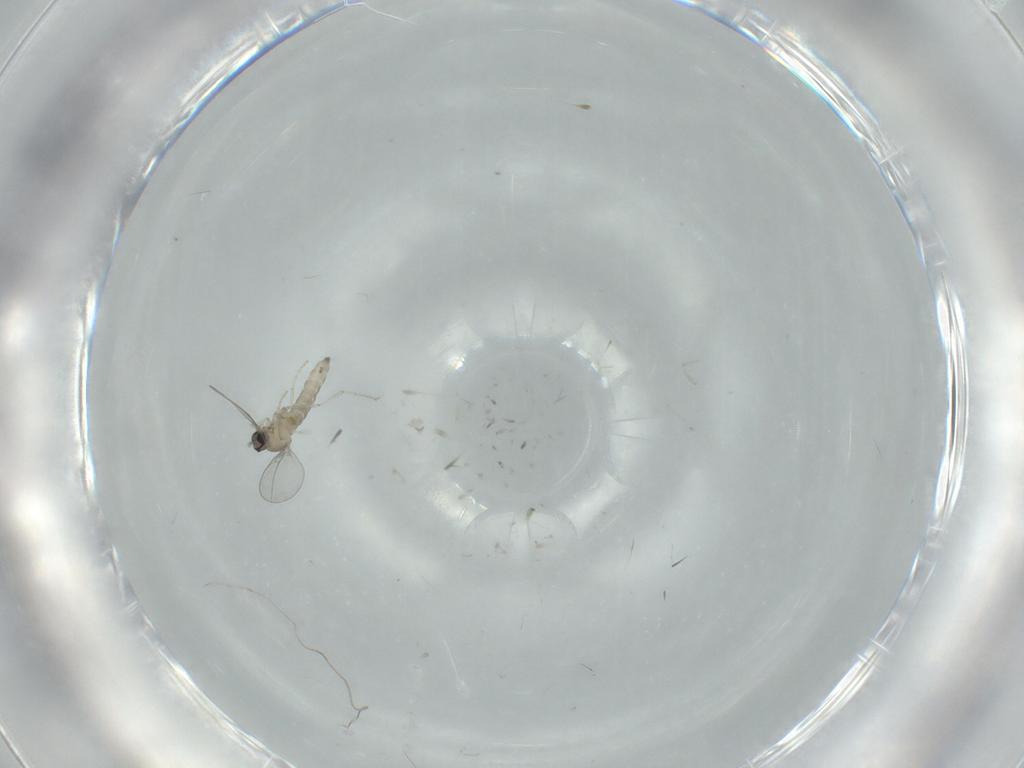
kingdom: Animalia
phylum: Arthropoda
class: Insecta
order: Diptera
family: Cecidomyiidae
